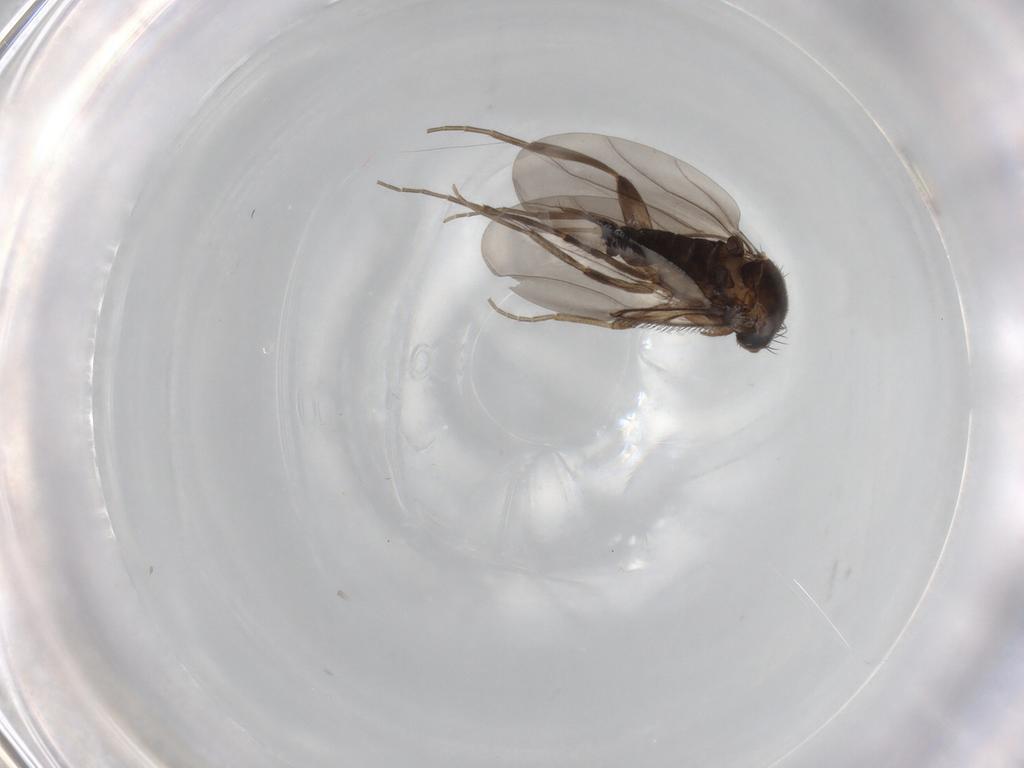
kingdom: Animalia
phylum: Arthropoda
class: Insecta
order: Diptera
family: Phoridae
